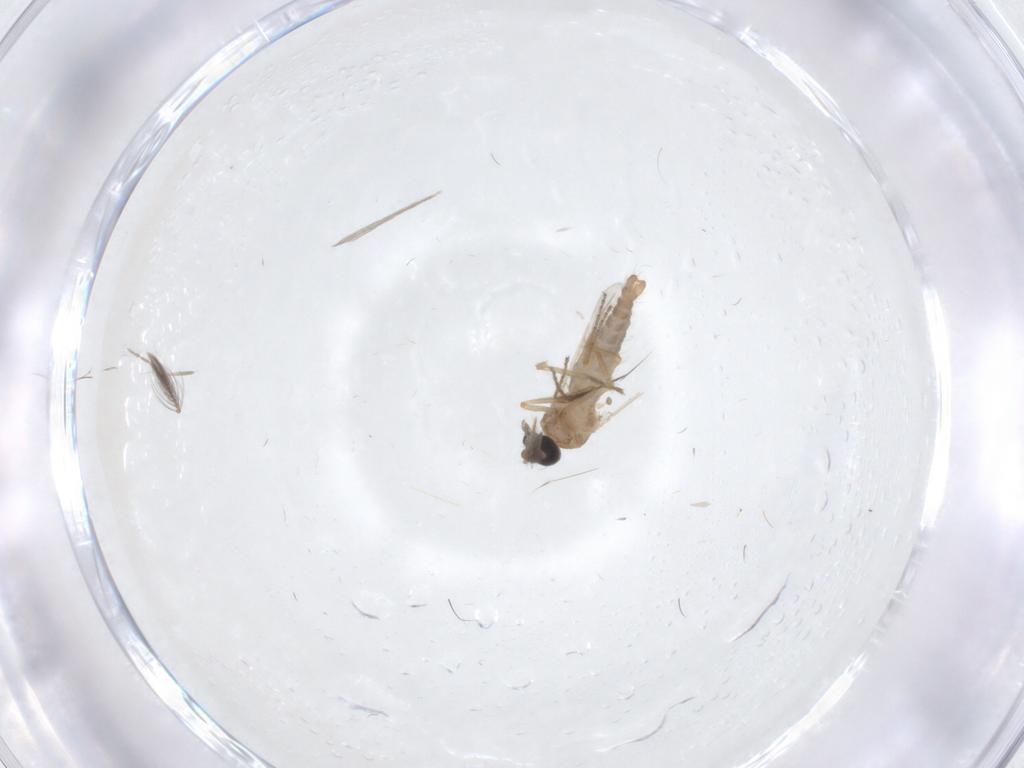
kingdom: Animalia
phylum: Arthropoda
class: Insecta
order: Diptera
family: Ceratopogonidae
